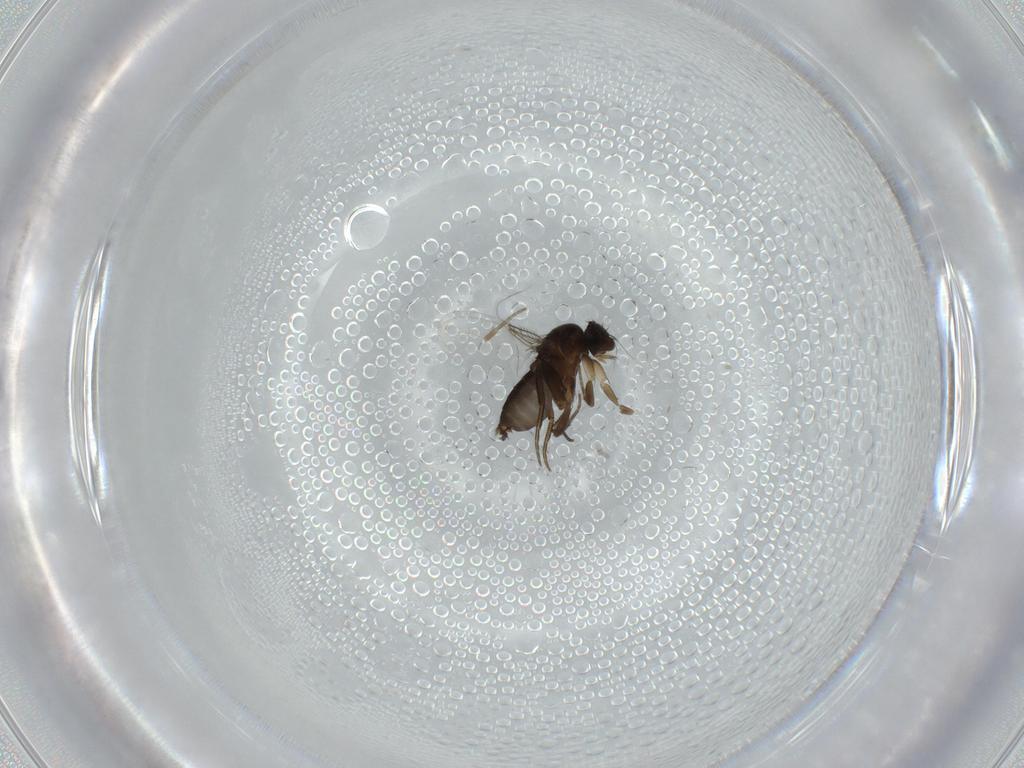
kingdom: Animalia
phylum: Arthropoda
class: Insecta
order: Diptera
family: Phoridae
